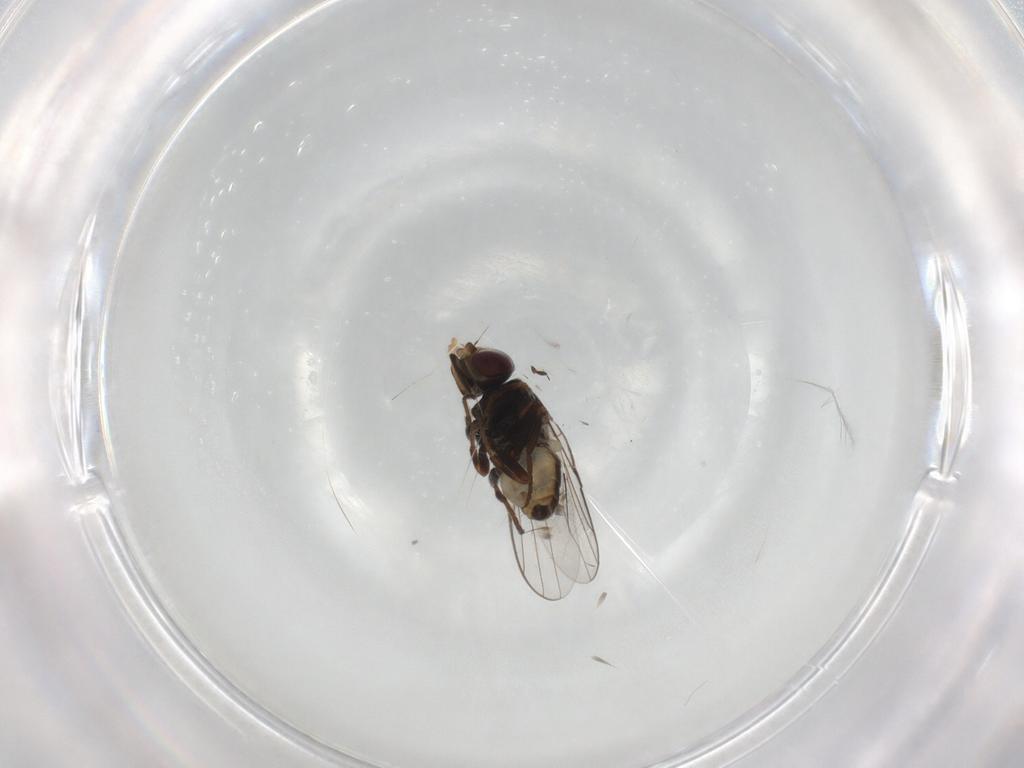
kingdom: Animalia
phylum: Arthropoda
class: Insecta
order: Diptera
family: Chloropidae
